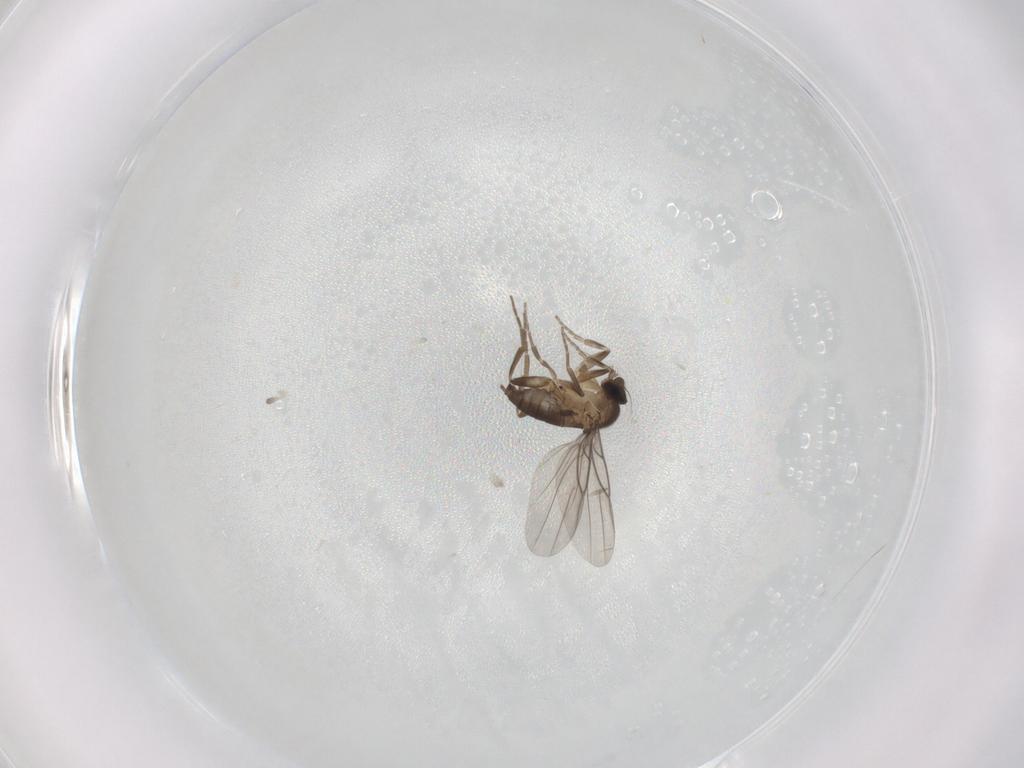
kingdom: Animalia
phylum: Arthropoda
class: Insecta
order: Diptera
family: Phoridae
